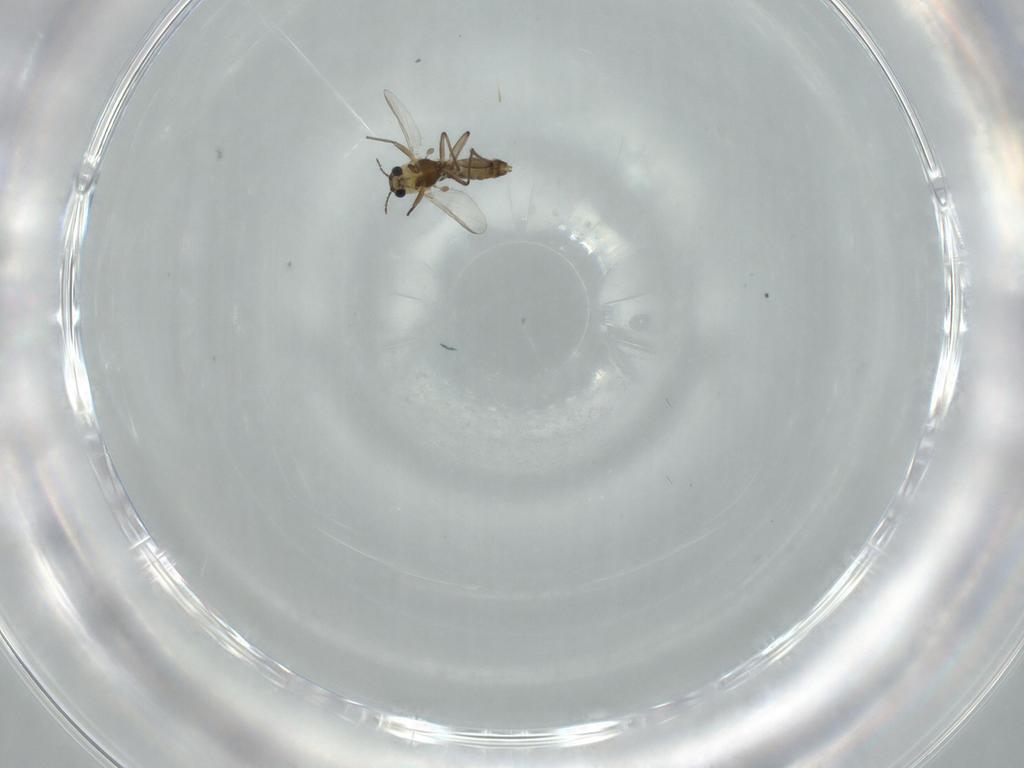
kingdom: Animalia
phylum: Arthropoda
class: Insecta
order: Diptera
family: Chironomidae
